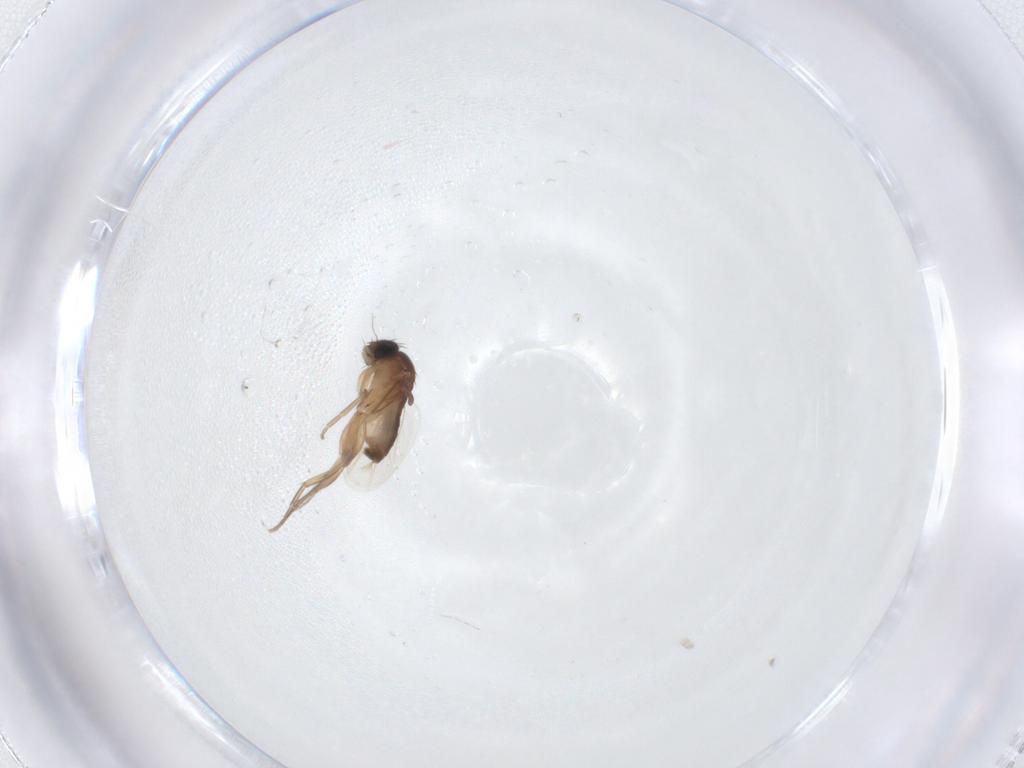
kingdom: Animalia
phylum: Arthropoda
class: Insecta
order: Diptera
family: Phoridae
